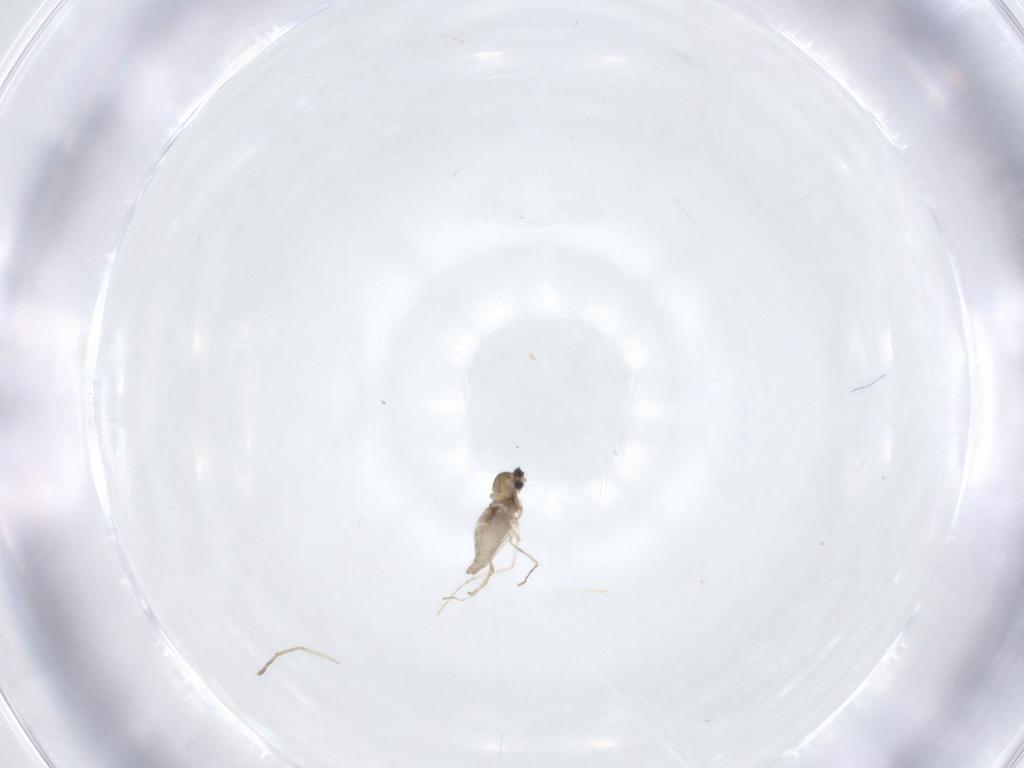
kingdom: Animalia
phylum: Arthropoda
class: Insecta
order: Diptera
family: Cecidomyiidae
